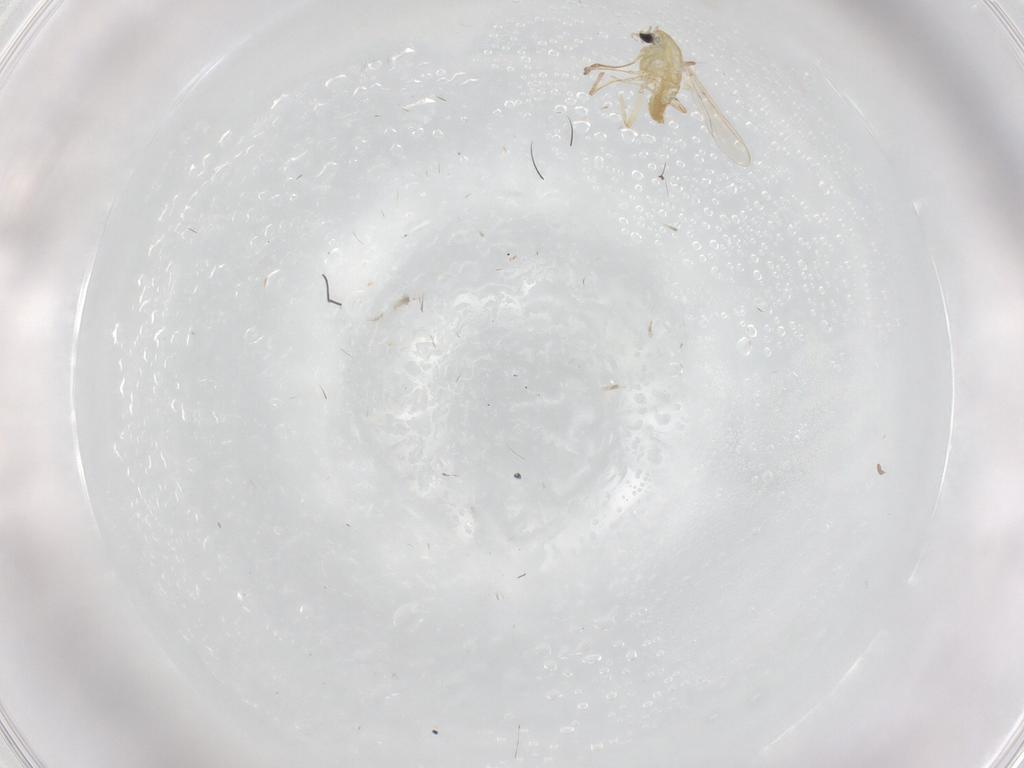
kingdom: Animalia
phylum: Arthropoda
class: Insecta
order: Diptera
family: Chironomidae
